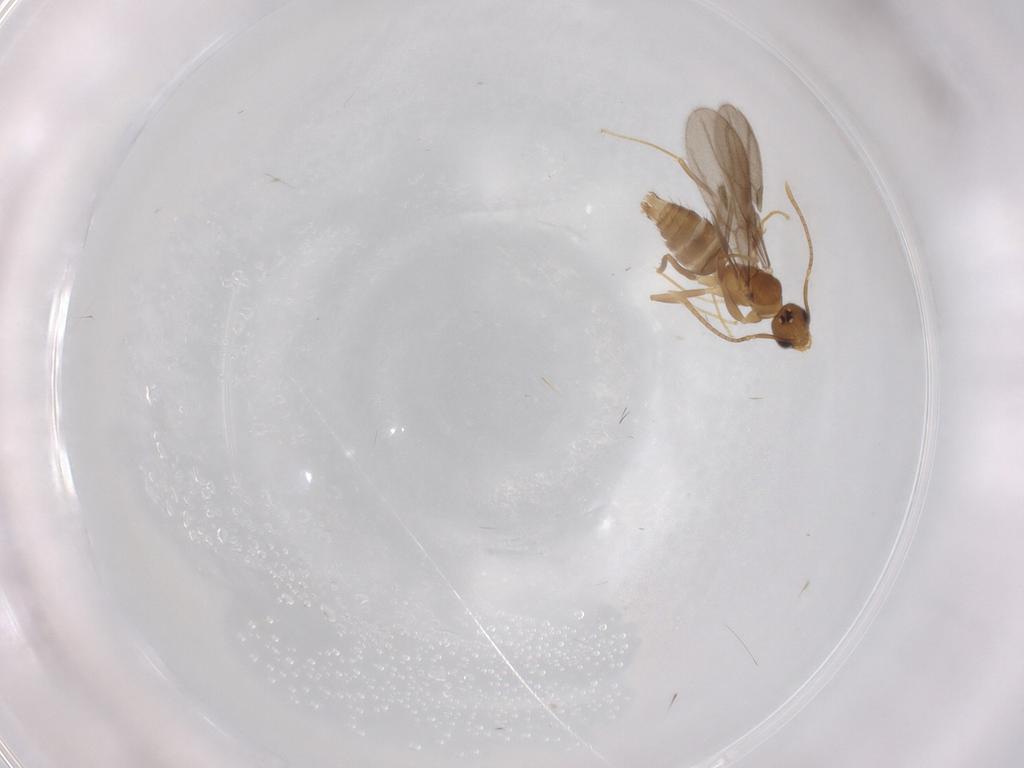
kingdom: Animalia
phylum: Arthropoda
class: Insecta
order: Hymenoptera
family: Formicidae
